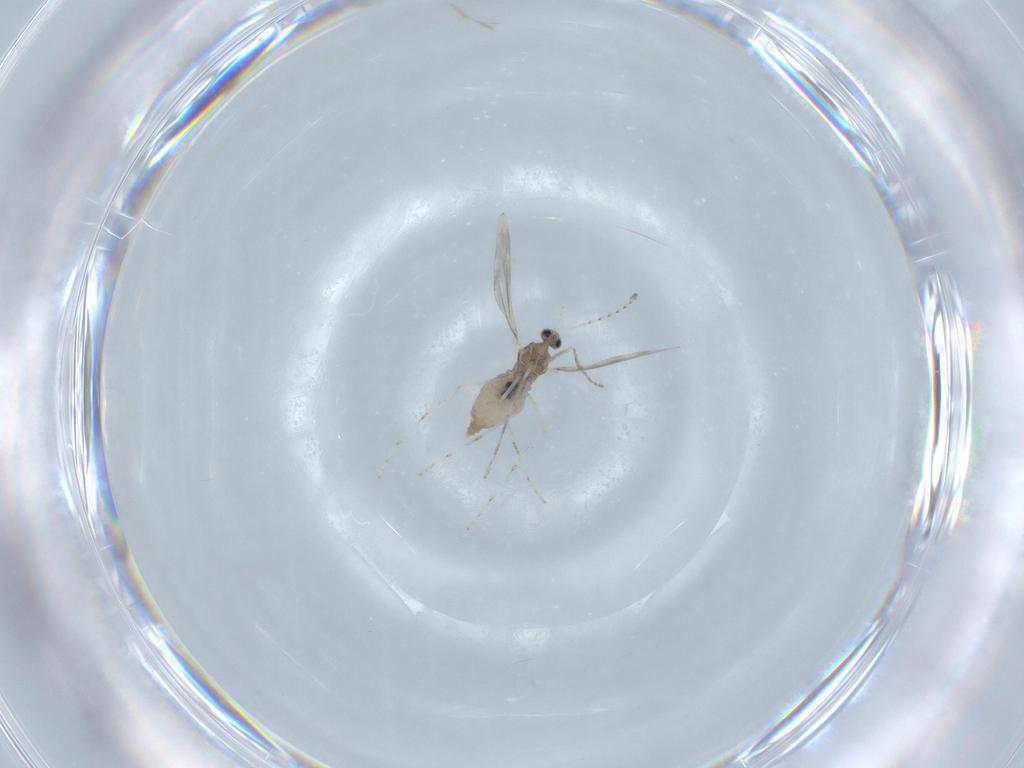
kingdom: Animalia
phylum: Arthropoda
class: Insecta
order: Diptera
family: Cecidomyiidae
